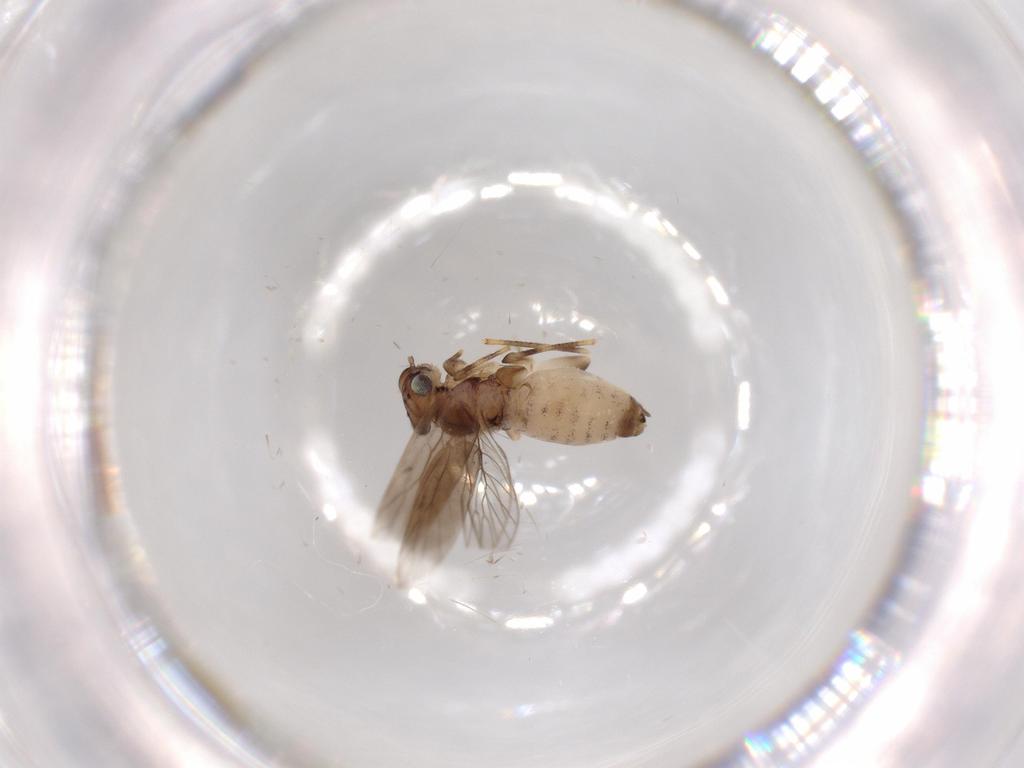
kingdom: Animalia
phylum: Arthropoda
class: Insecta
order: Psocodea
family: Lepidopsocidae
